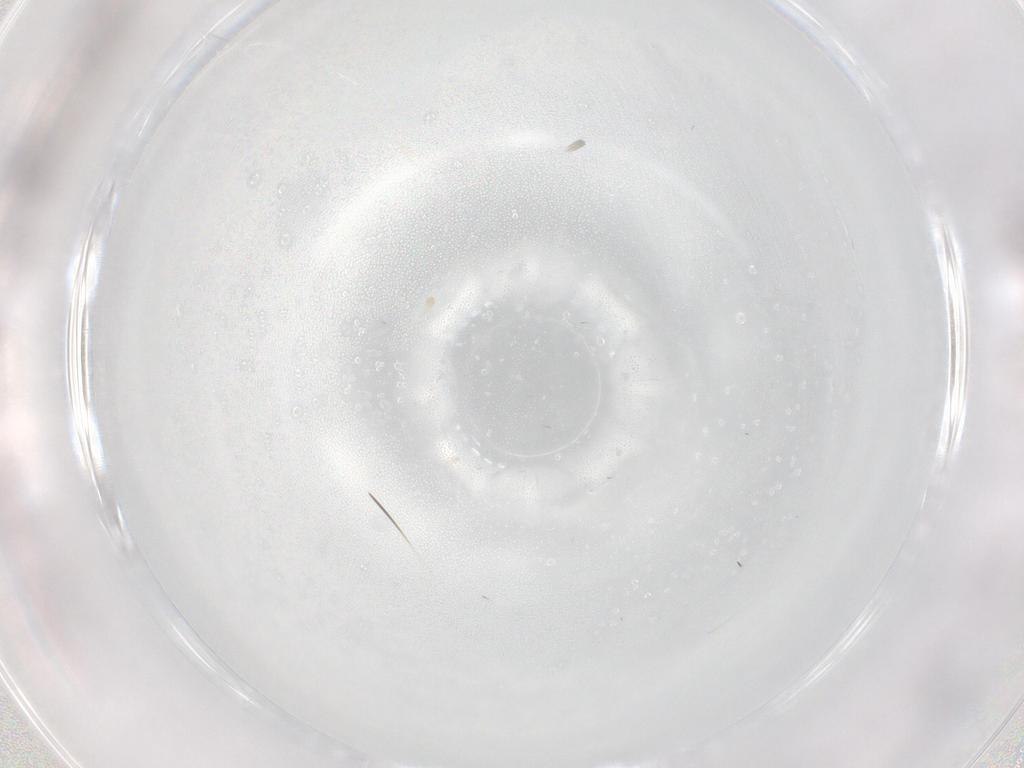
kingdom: Animalia
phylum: Arthropoda
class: Insecta
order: Diptera
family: Cecidomyiidae
